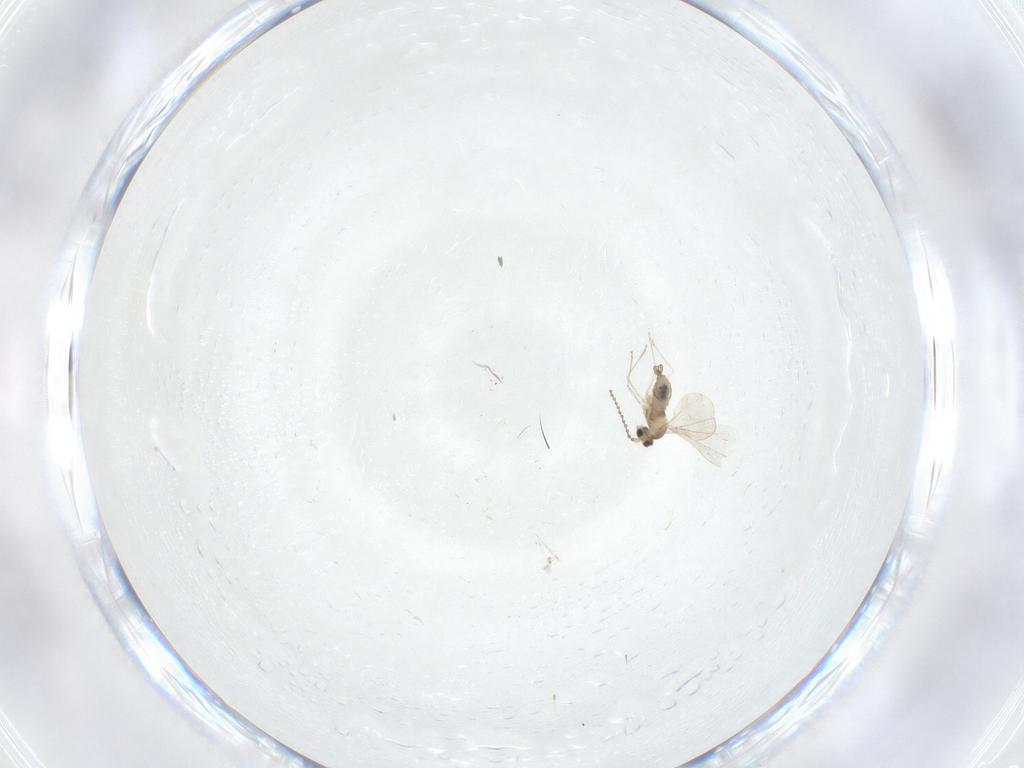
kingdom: Animalia
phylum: Arthropoda
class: Insecta
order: Diptera
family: Cecidomyiidae
